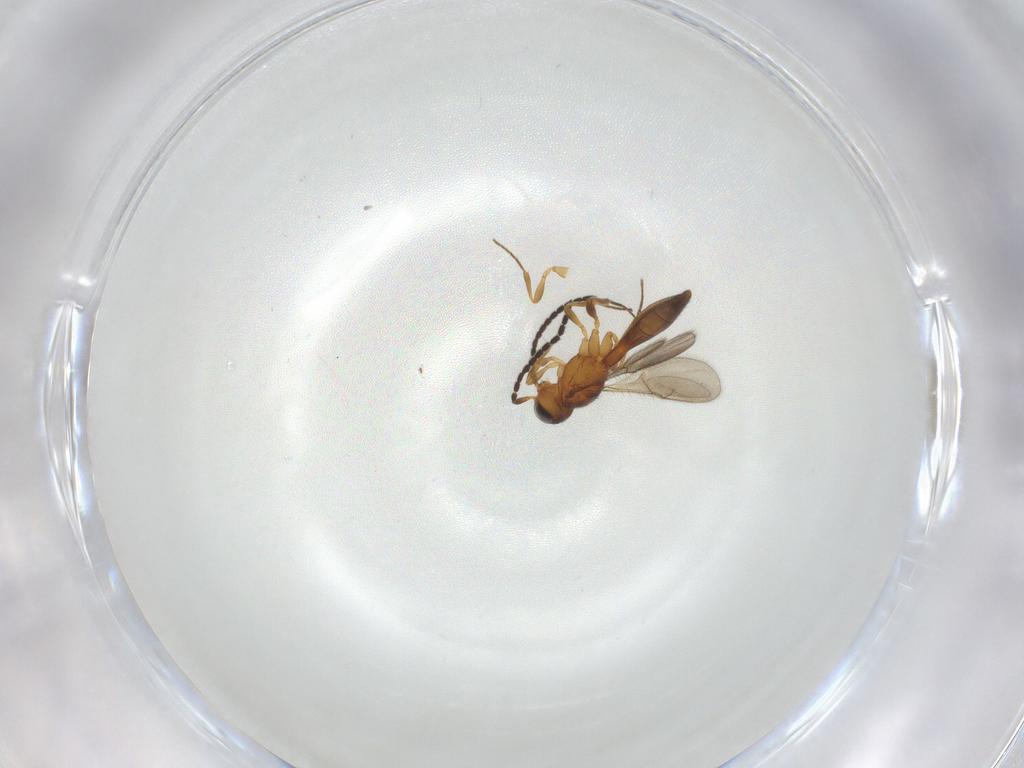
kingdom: Animalia
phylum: Arthropoda
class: Insecta
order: Hymenoptera
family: Scelionidae
